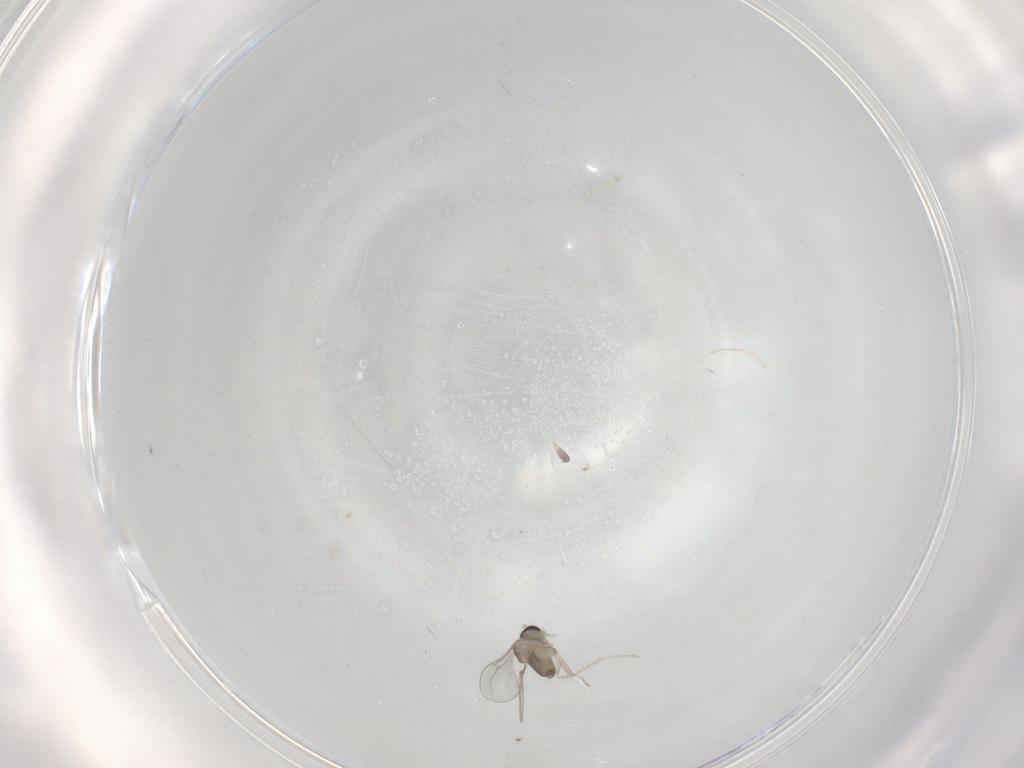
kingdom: Animalia
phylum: Arthropoda
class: Insecta
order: Diptera
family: Cecidomyiidae
